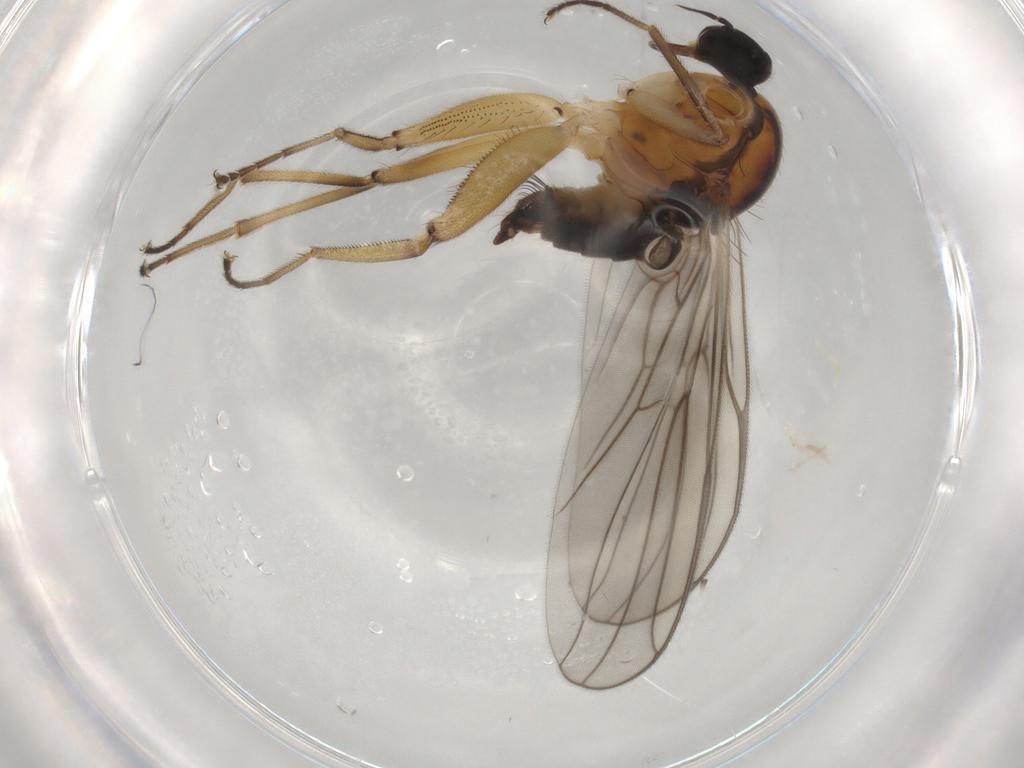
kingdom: Animalia
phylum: Arthropoda
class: Insecta
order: Diptera
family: Hybotidae
